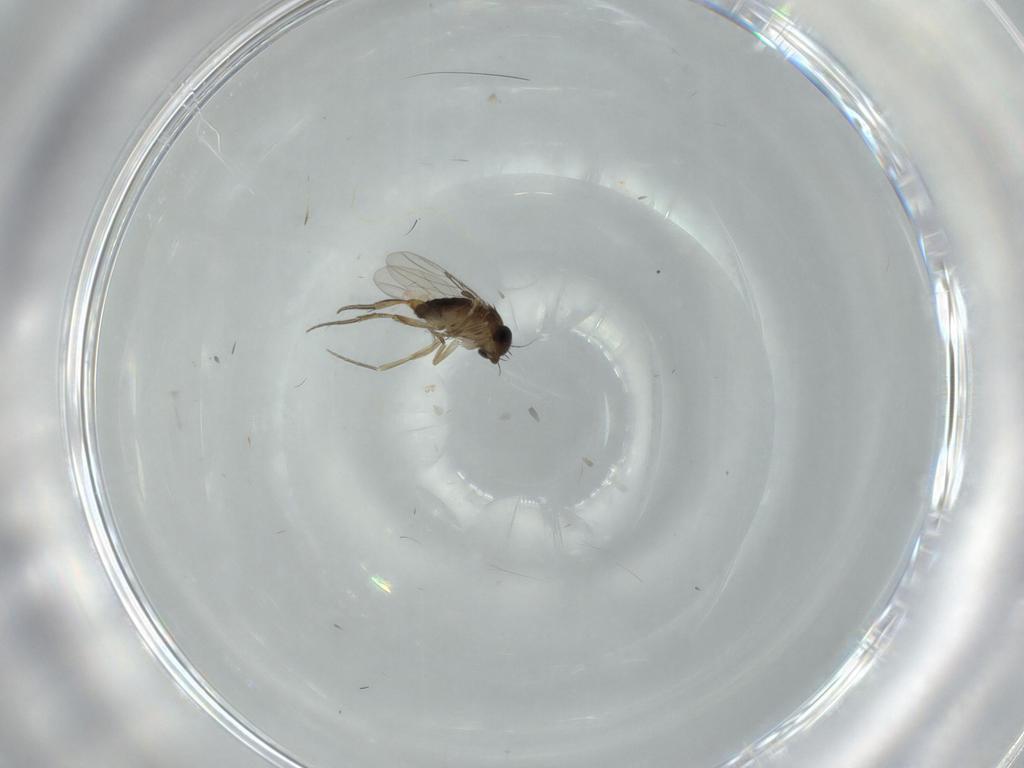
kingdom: Animalia
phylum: Arthropoda
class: Insecta
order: Diptera
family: Phoridae
